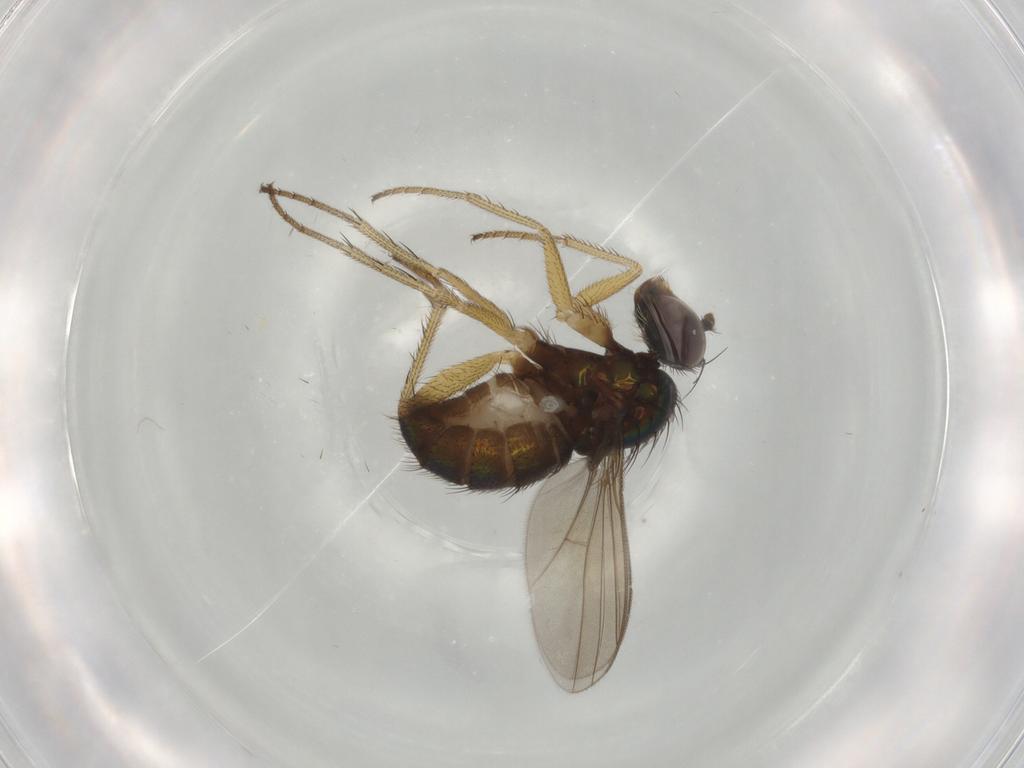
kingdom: Animalia
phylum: Arthropoda
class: Insecta
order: Diptera
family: Dolichopodidae
